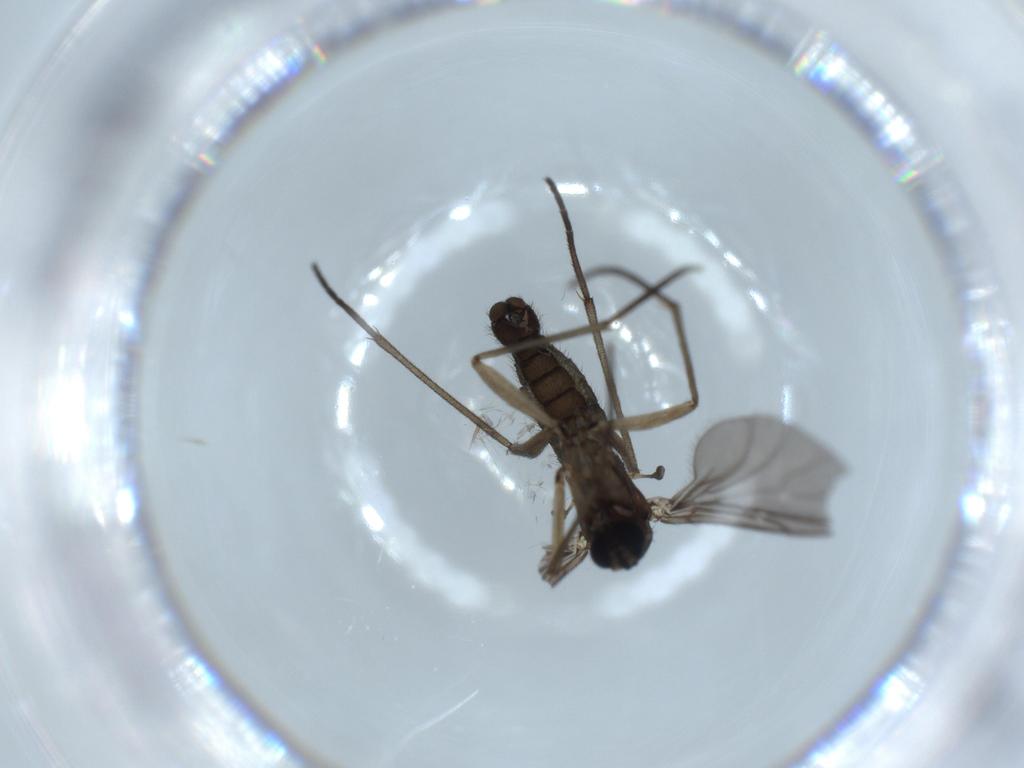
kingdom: Animalia
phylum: Arthropoda
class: Insecta
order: Diptera
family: Sciaridae
